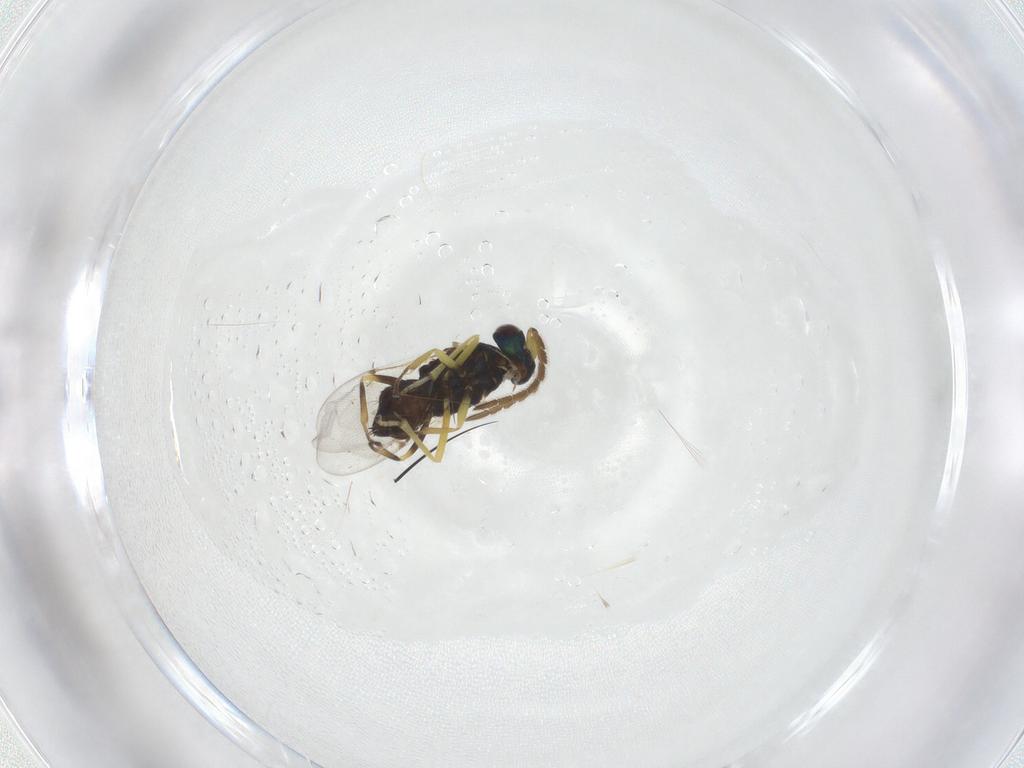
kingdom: Animalia
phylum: Arthropoda
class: Insecta
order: Hymenoptera
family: Encyrtidae
